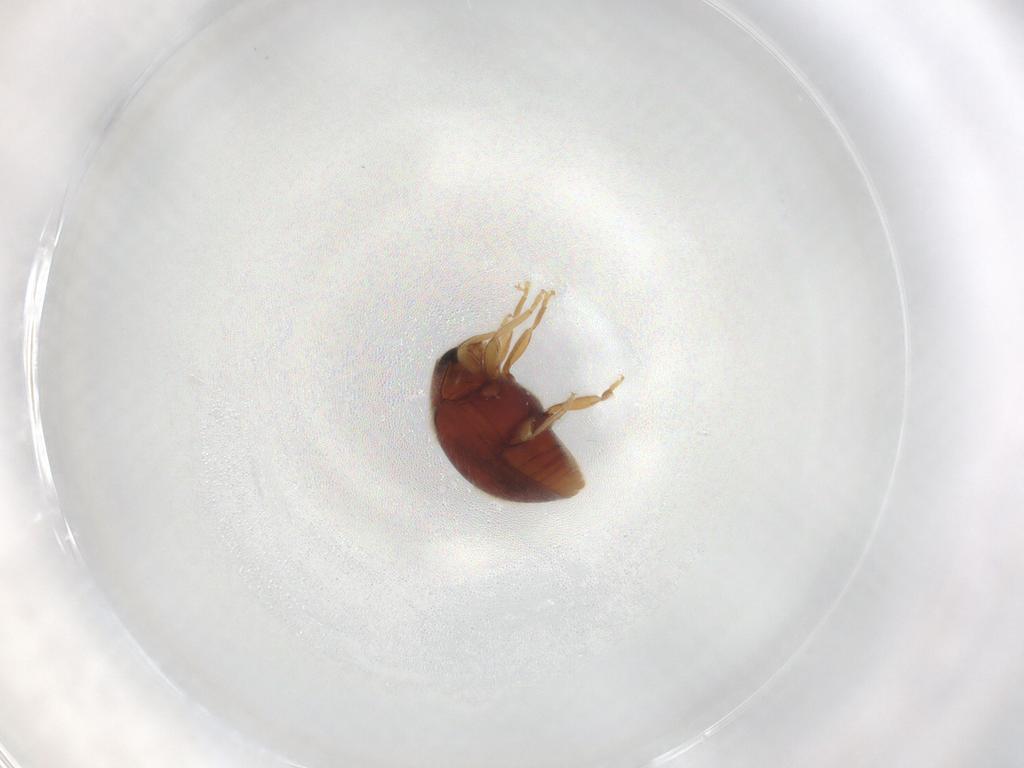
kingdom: Animalia
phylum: Arthropoda
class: Insecta
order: Coleoptera
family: Coccinellidae
